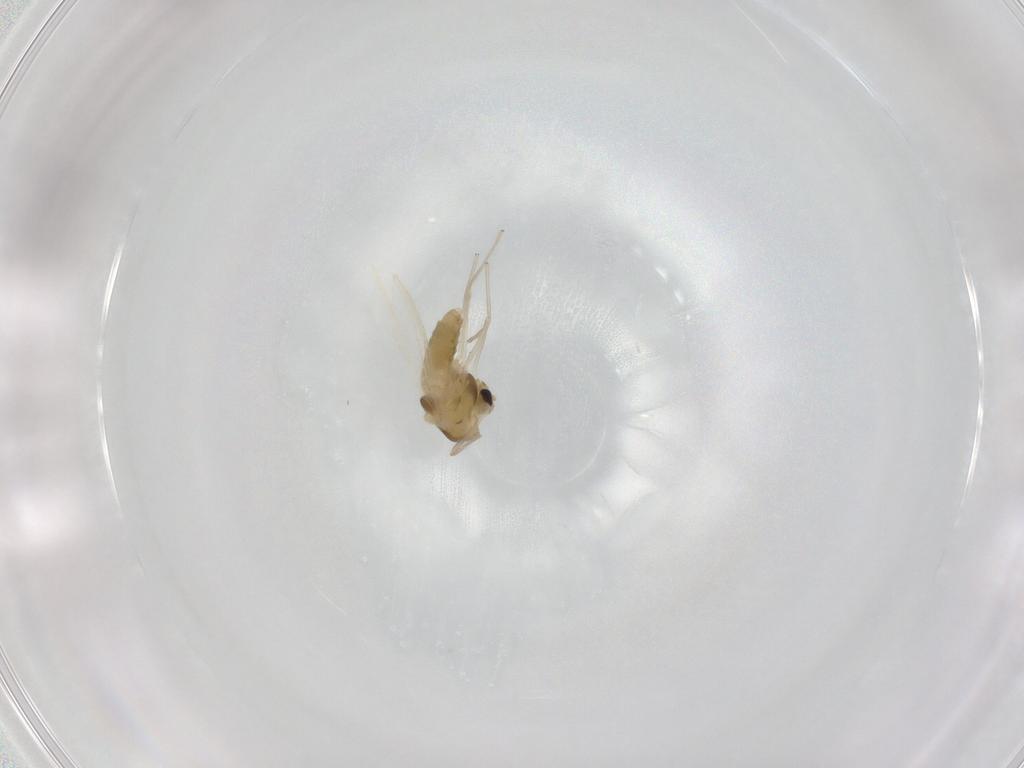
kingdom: Animalia
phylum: Arthropoda
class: Insecta
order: Diptera
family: Chironomidae
